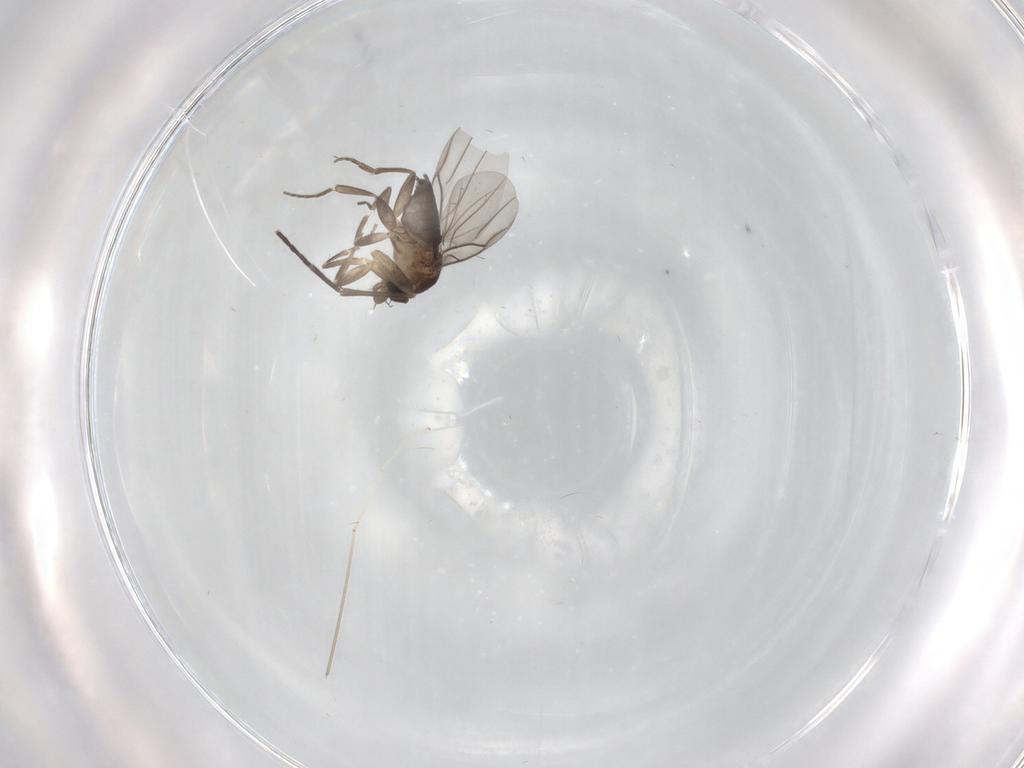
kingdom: Animalia
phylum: Arthropoda
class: Insecta
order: Diptera
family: Sciaridae
